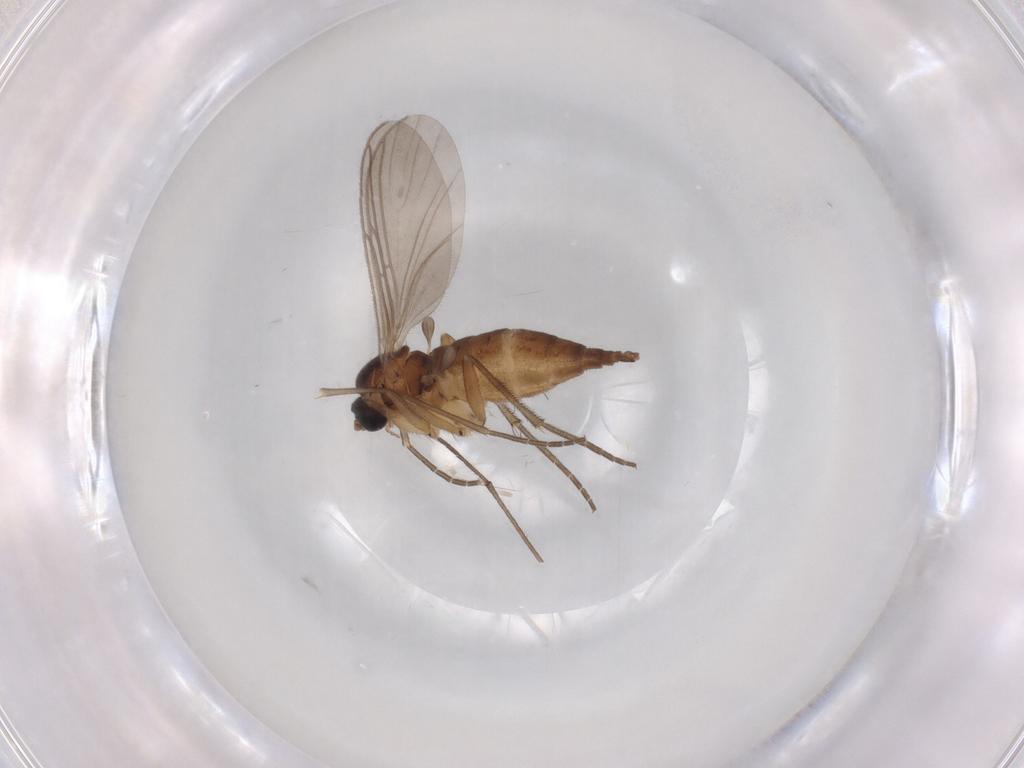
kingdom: Animalia
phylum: Arthropoda
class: Insecta
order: Diptera
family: Sciaridae
